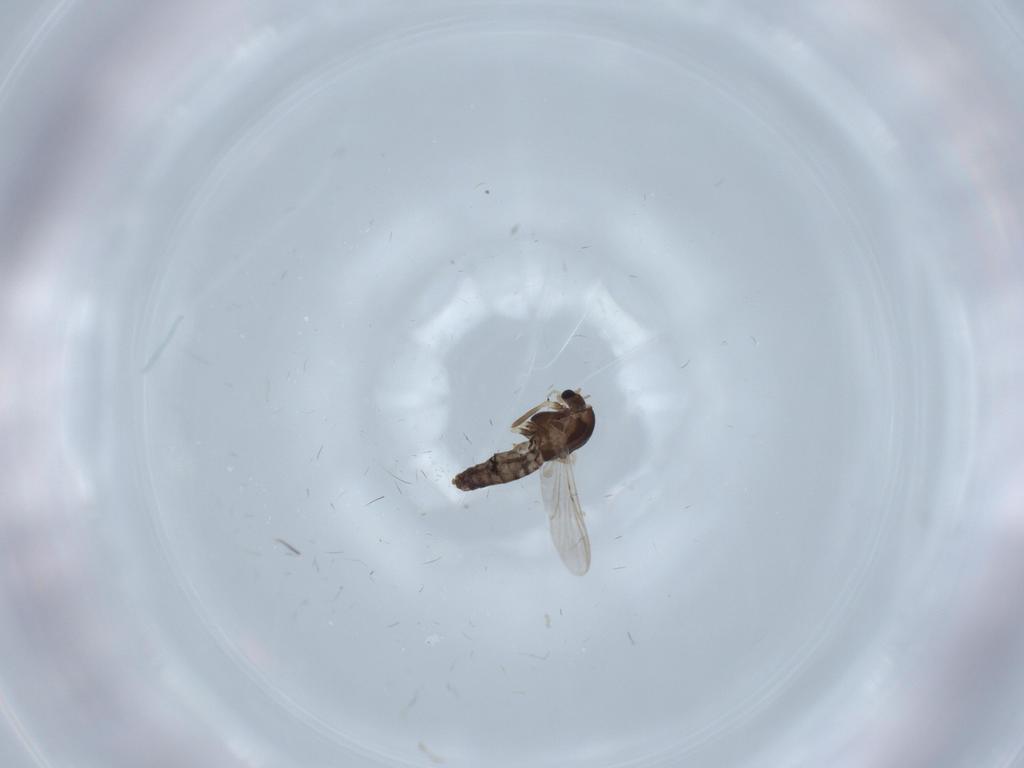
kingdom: Animalia
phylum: Arthropoda
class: Insecta
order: Diptera
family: Chironomidae
